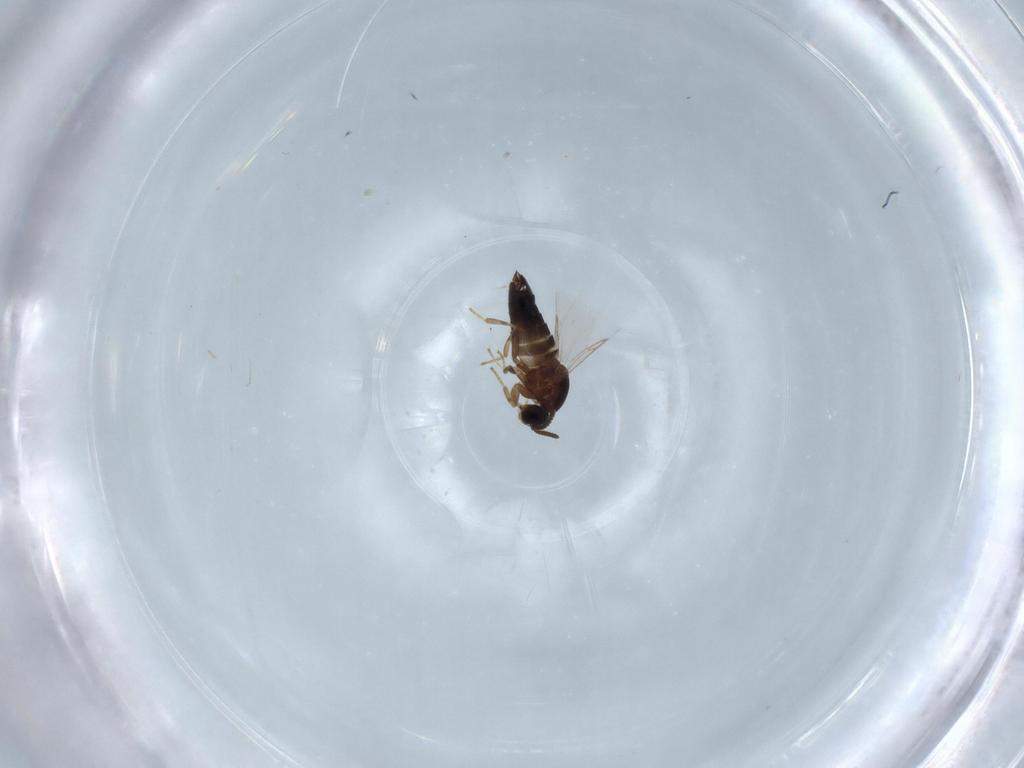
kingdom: Animalia
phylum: Arthropoda
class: Insecta
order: Diptera
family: Scatopsidae
